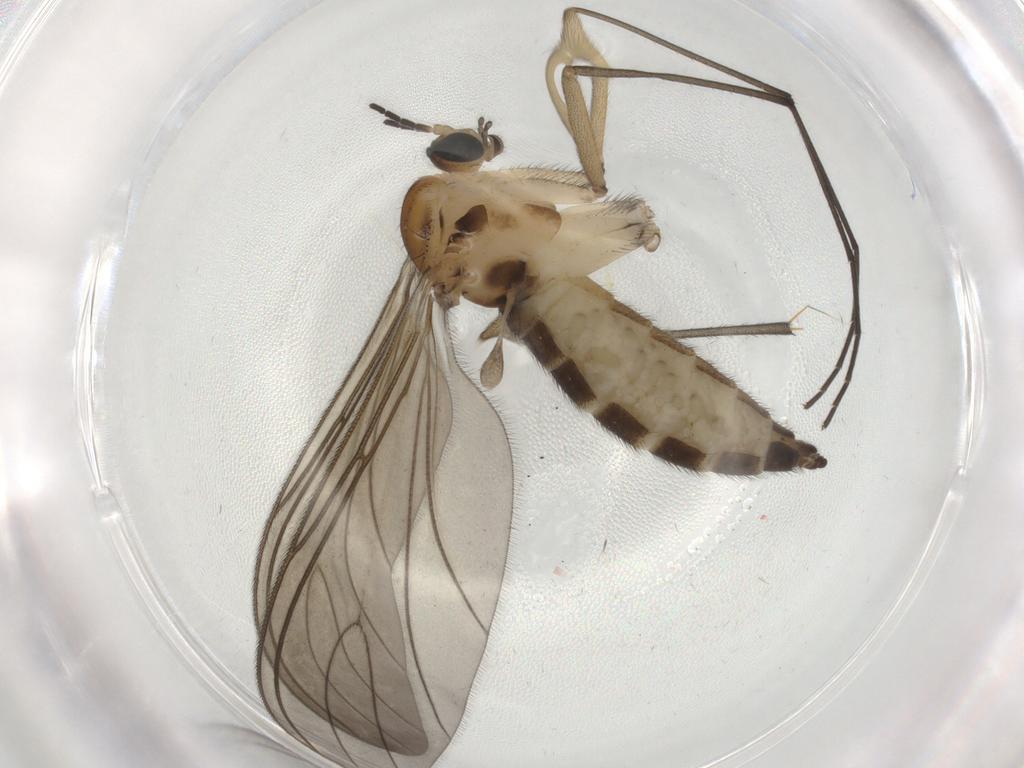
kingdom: Animalia
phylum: Arthropoda
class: Insecta
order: Diptera
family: Sciaridae
